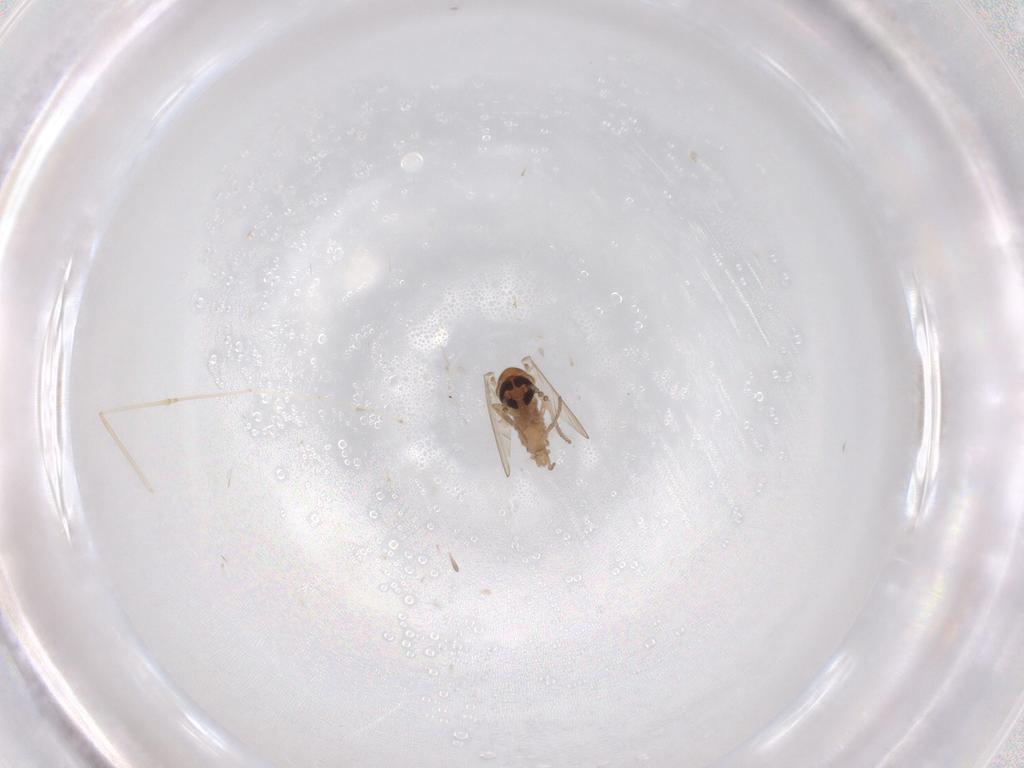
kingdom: Animalia
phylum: Arthropoda
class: Insecta
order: Diptera
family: Cecidomyiidae
